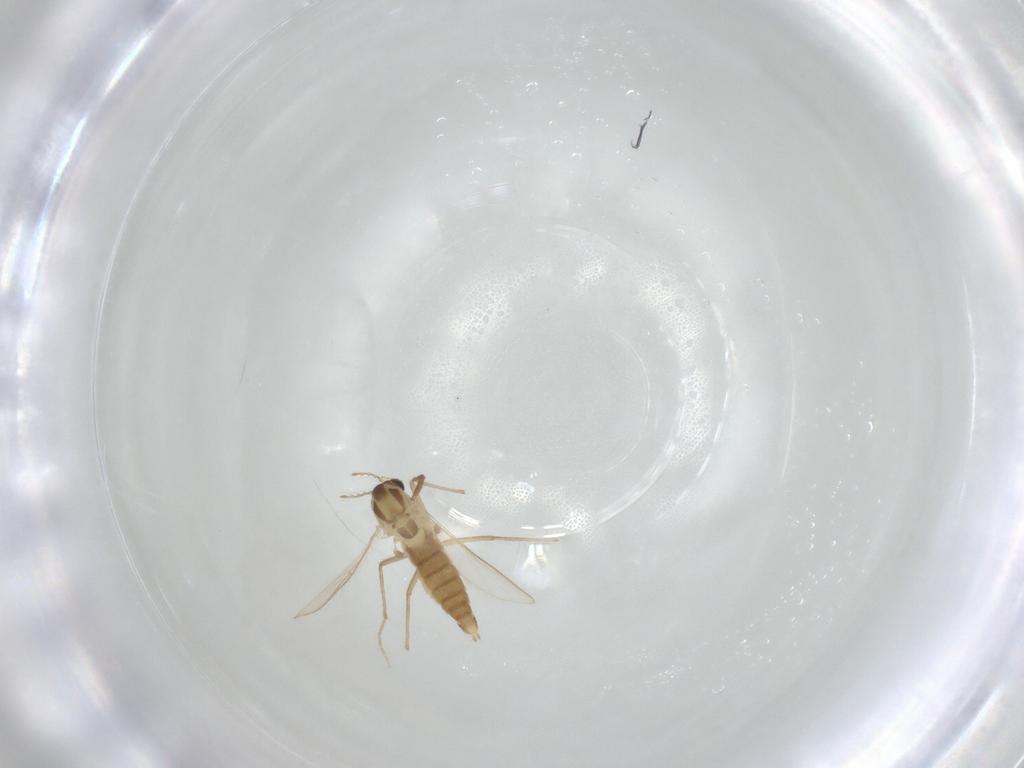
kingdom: Animalia
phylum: Arthropoda
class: Insecta
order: Diptera
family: Chironomidae
